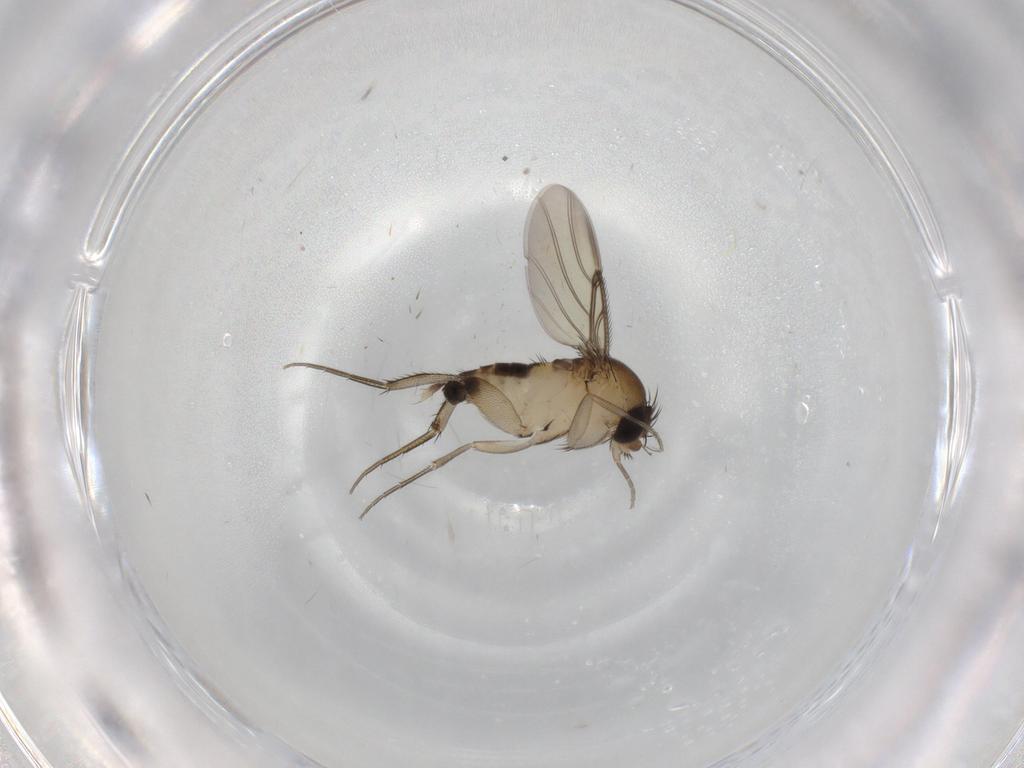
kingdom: Animalia
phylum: Arthropoda
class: Insecta
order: Diptera
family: Phoridae
